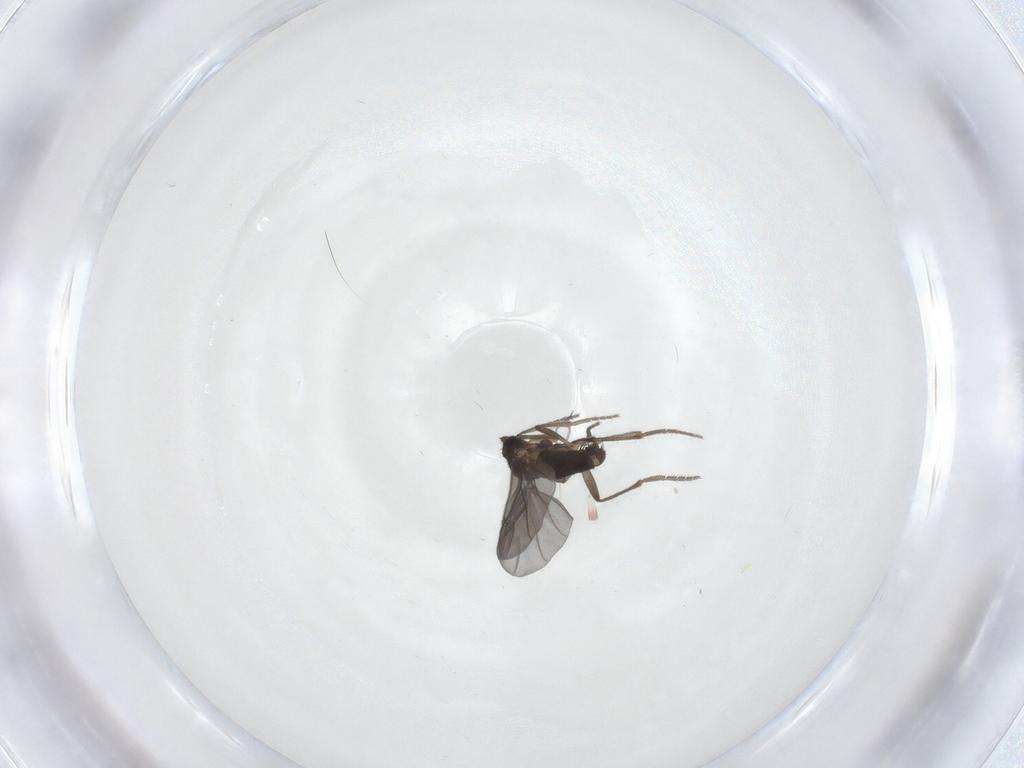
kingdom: Animalia
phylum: Arthropoda
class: Insecta
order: Diptera
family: Phoridae
